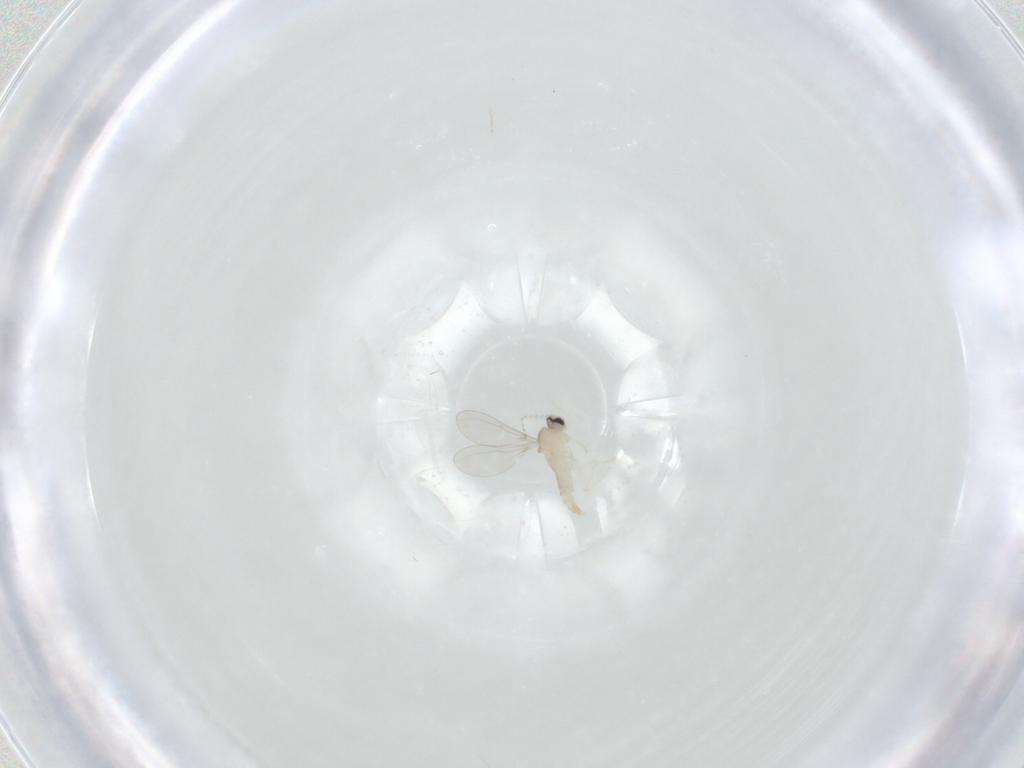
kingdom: Animalia
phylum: Arthropoda
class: Insecta
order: Diptera
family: Cecidomyiidae
